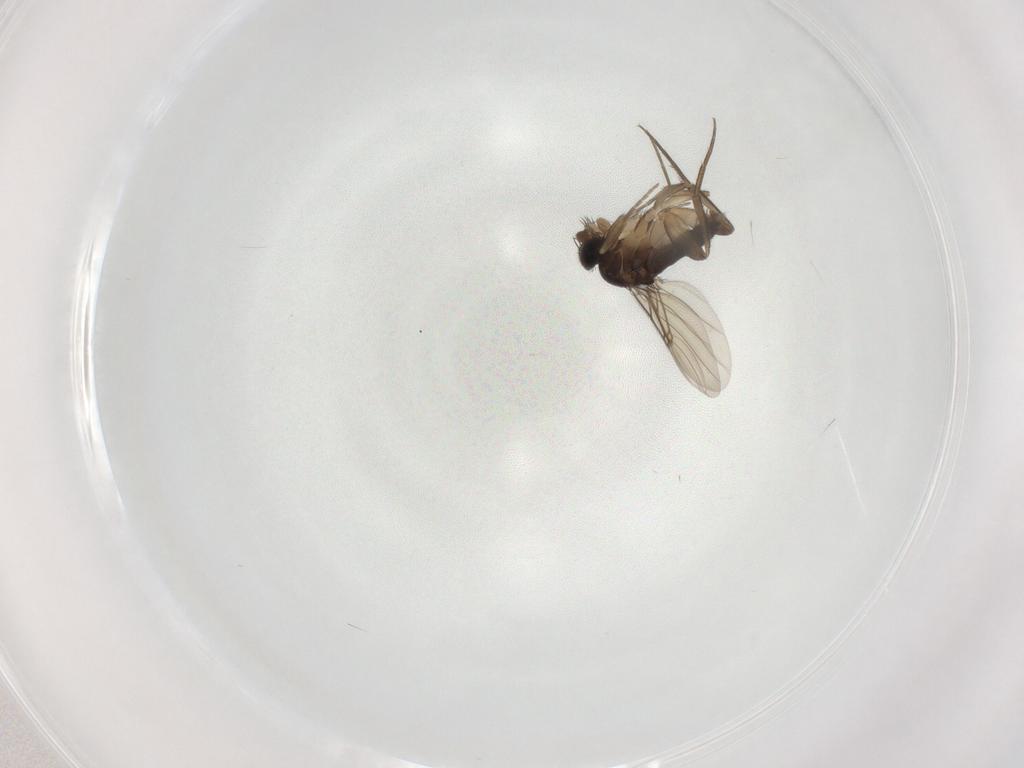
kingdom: Animalia
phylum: Arthropoda
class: Insecta
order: Diptera
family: Ceratopogonidae
